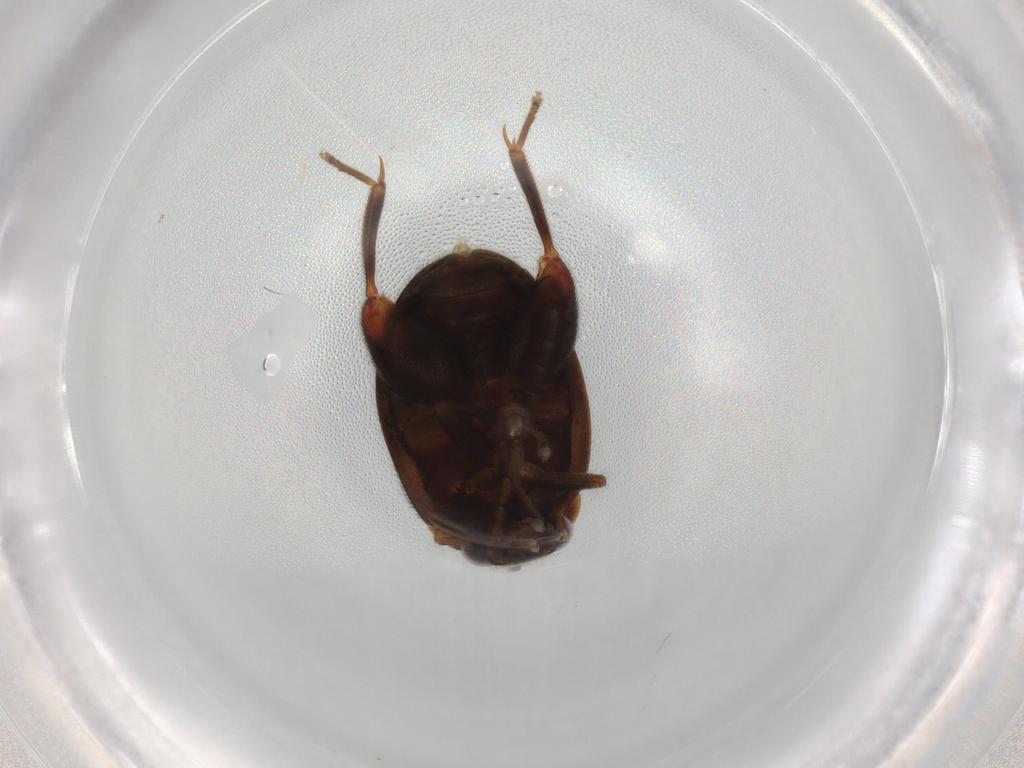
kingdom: Animalia
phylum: Arthropoda
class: Insecta
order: Coleoptera
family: Scirtidae
